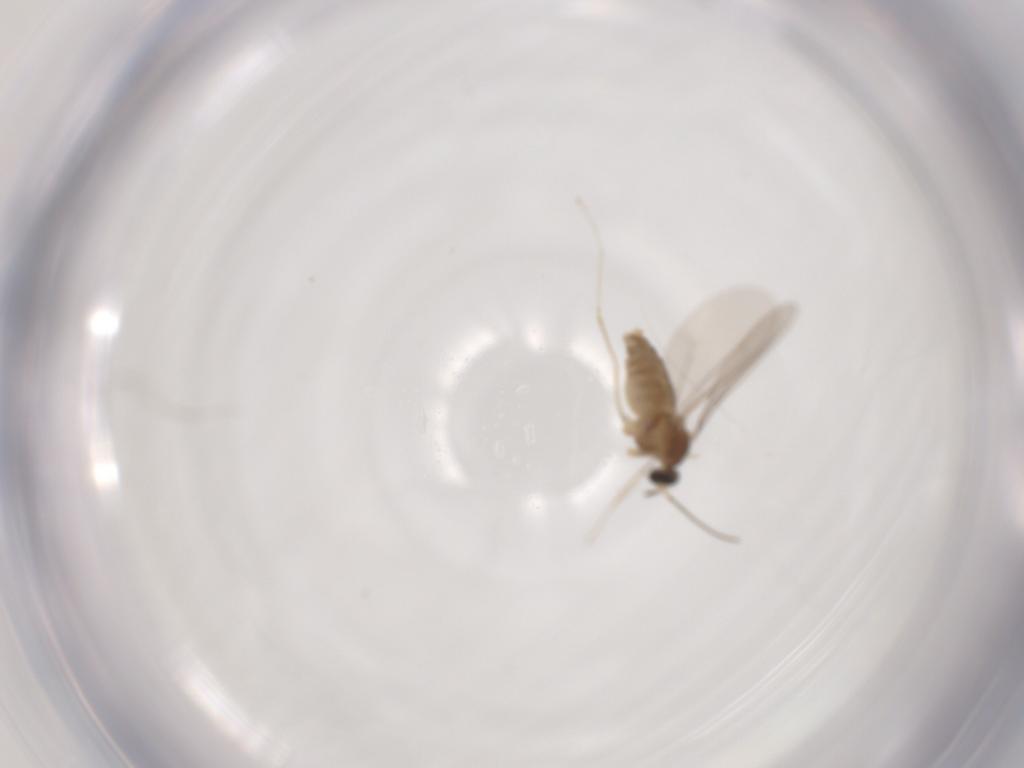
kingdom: Animalia
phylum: Arthropoda
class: Insecta
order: Diptera
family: Cecidomyiidae
